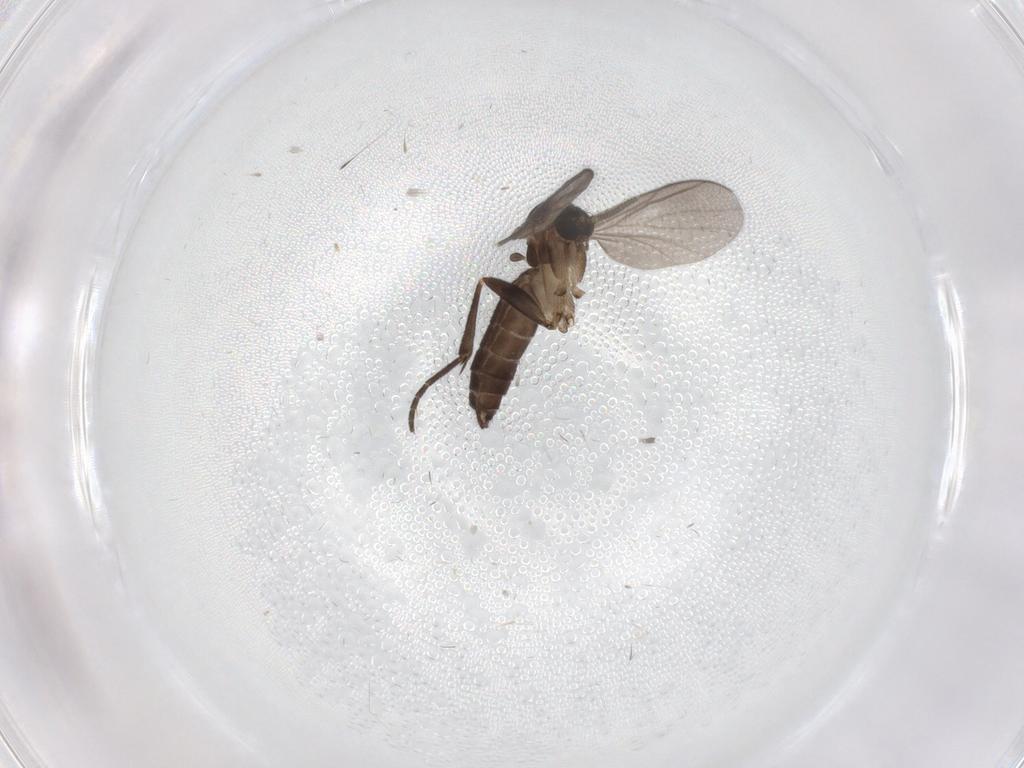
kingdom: Animalia
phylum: Arthropoda
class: Insecta
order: Diptera
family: Mycetophilidae
